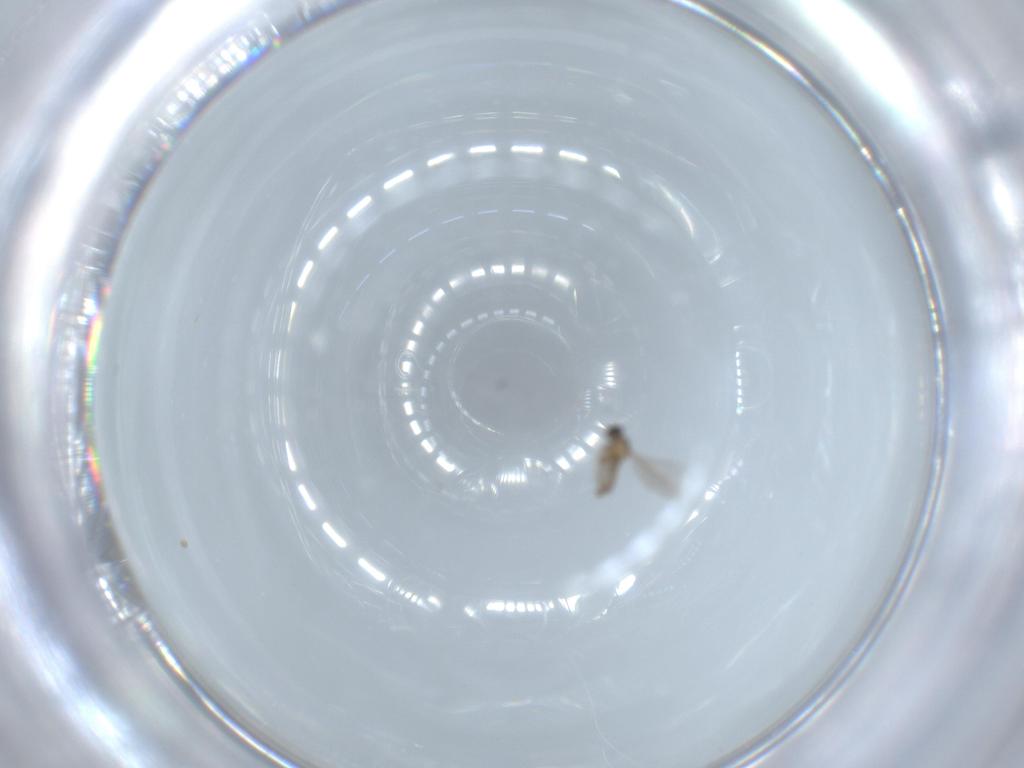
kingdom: Animalia
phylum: Arthropoda
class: Insecta
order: Diptera
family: Cecidomyiidae
